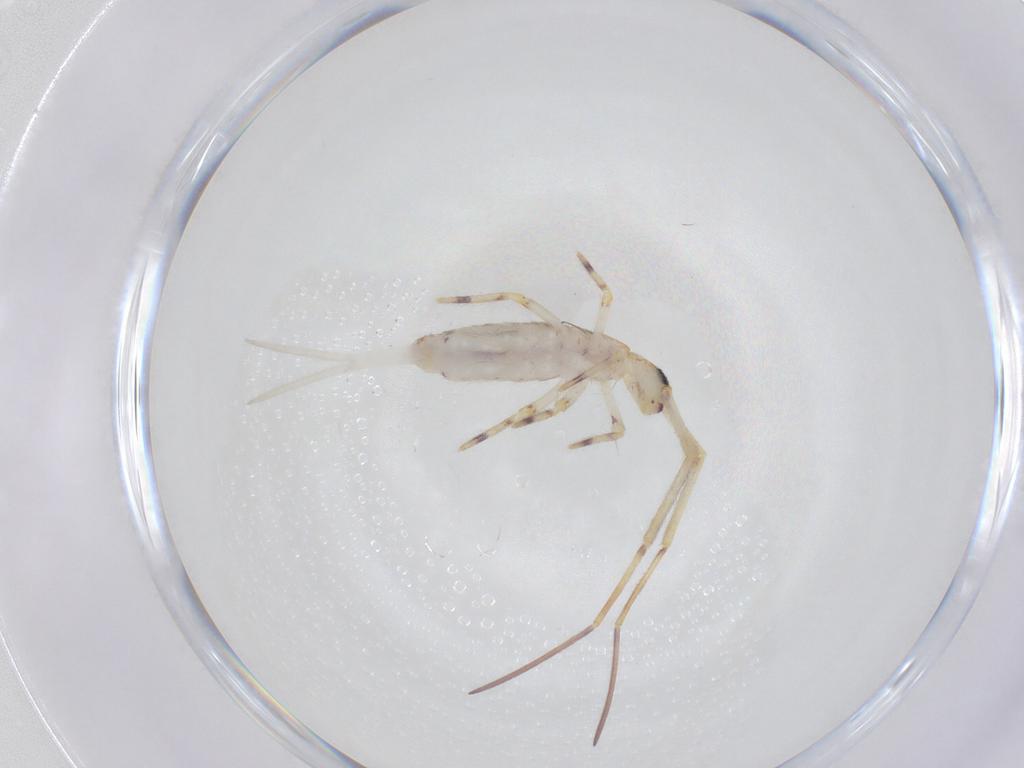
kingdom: Animalia
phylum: Arthropoda
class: Collembola
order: Entomobryomorpha
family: Entomobryidae
